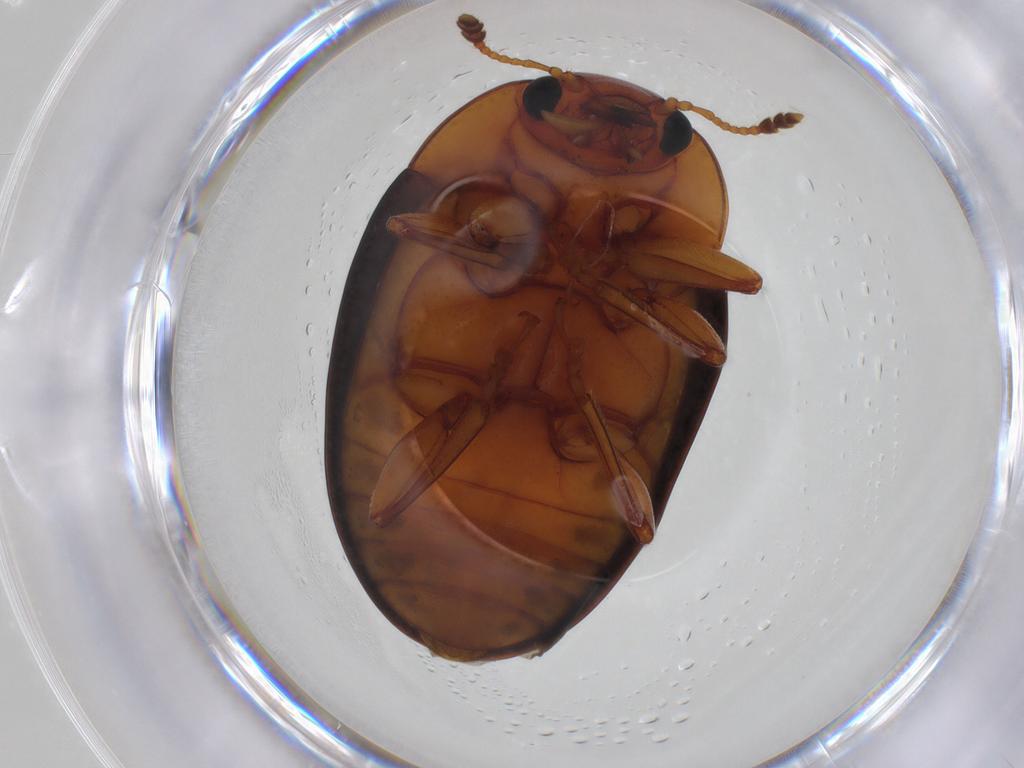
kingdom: Animalia
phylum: Arthropoda
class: Insecta
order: Coleoptera
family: Erotylidae
